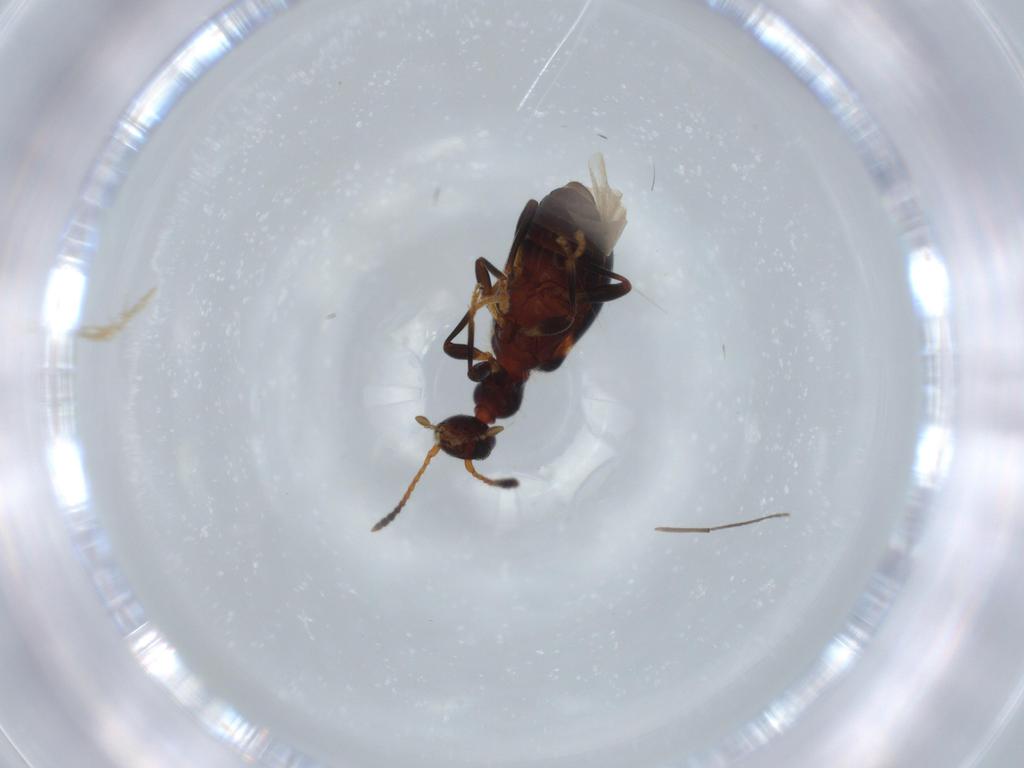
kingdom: Animalia
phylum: Arthropoda
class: Insecta
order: Coleoptera
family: Anthicidae
